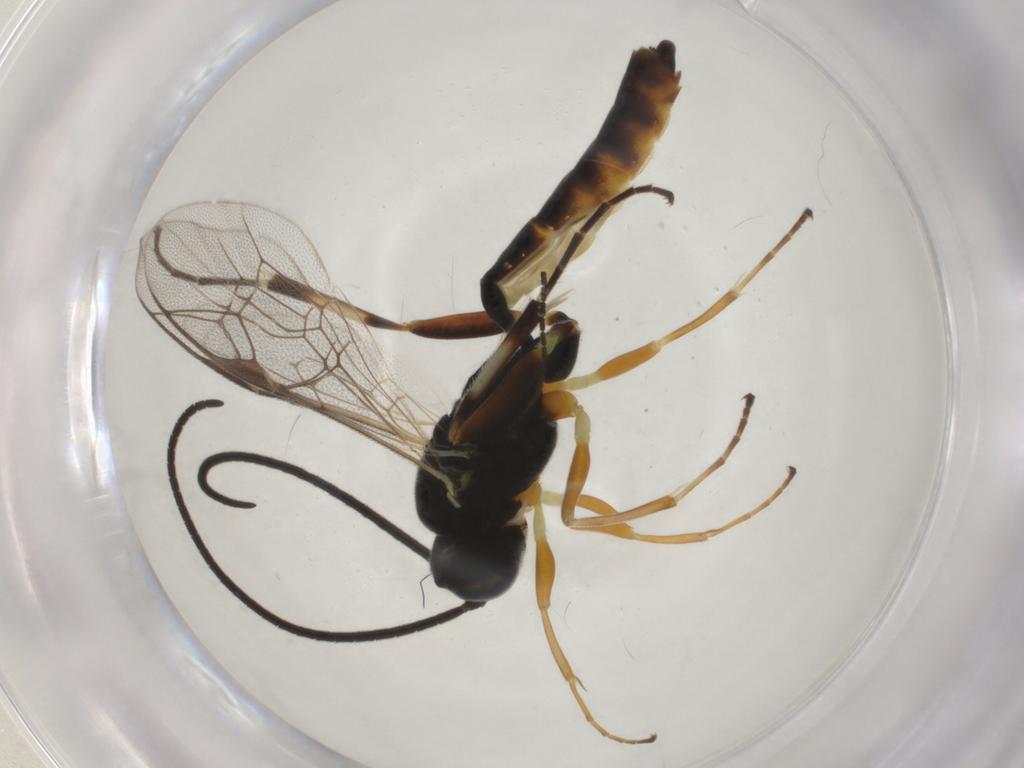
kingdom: Animalia
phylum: Arthropoda
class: Insecta
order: Hymenoptera
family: Ichneumonidae
